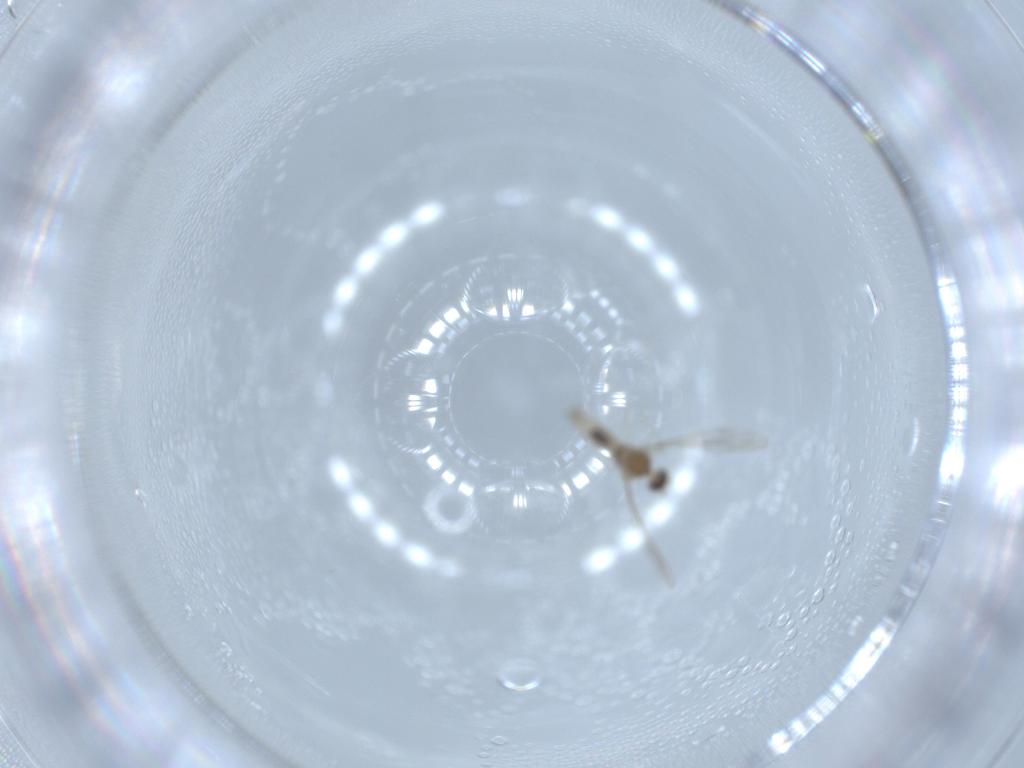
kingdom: Animalia
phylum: Arthropoda
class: Insecta
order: Diptera
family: Cecidomyiidae
